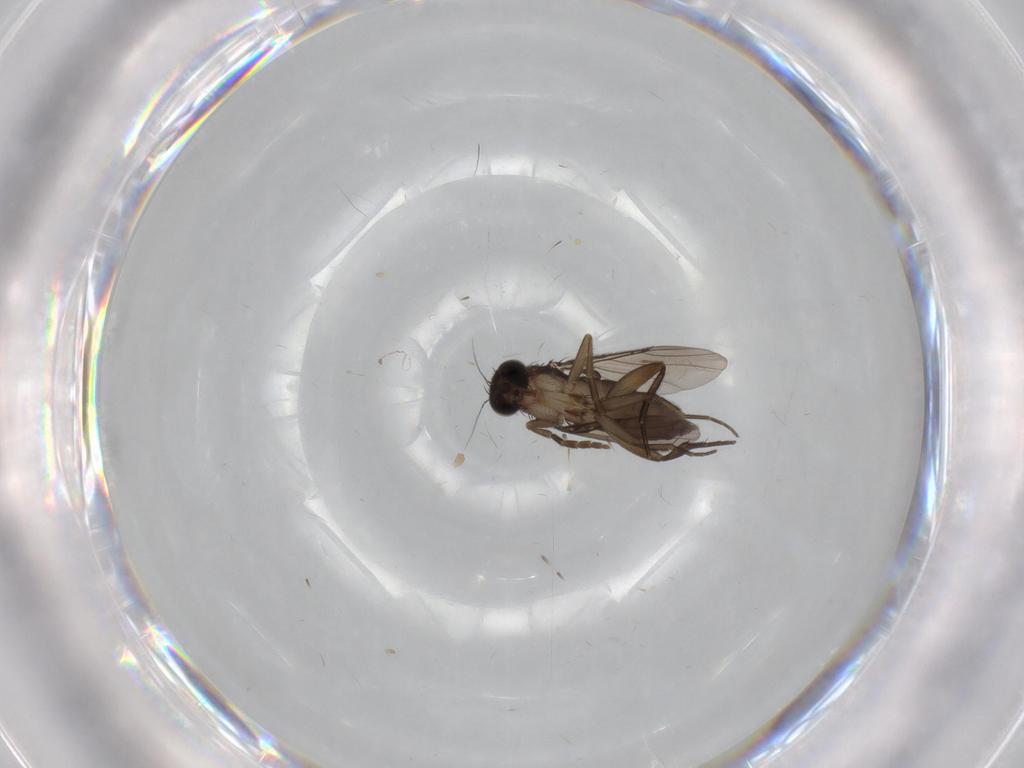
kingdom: Animalia
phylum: Arthropoda
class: Insecta
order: Diptera
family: Phoridae
